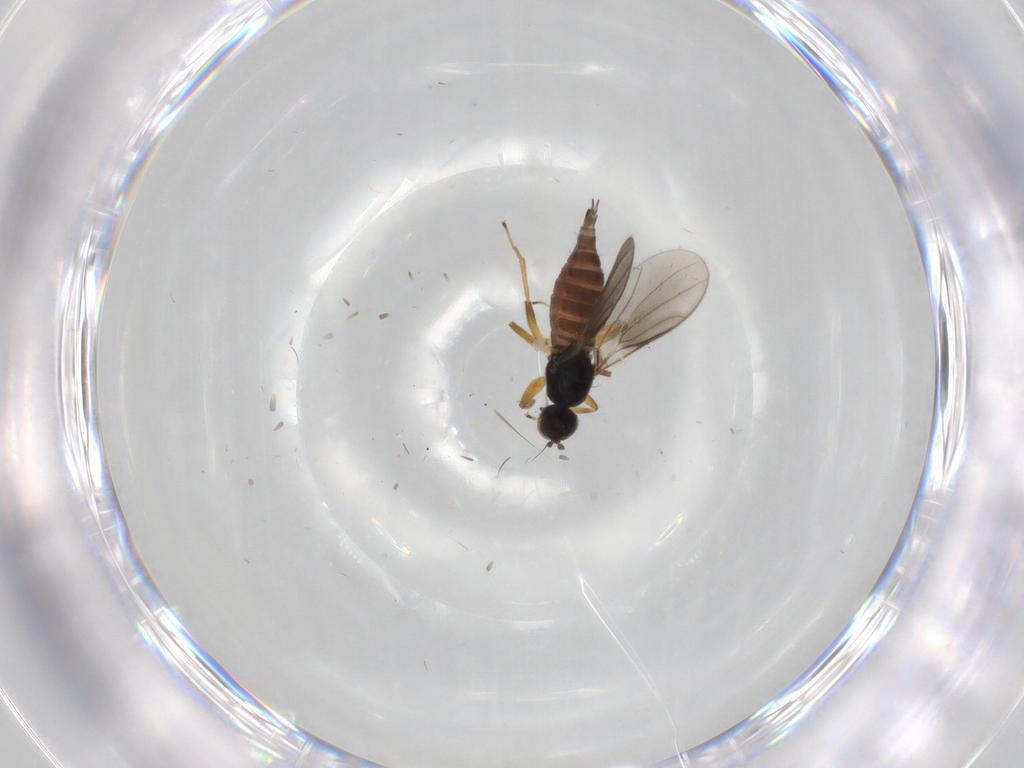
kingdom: Animalia
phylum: Arthropoda
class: Insecta
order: Diptera
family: Hybotidae
